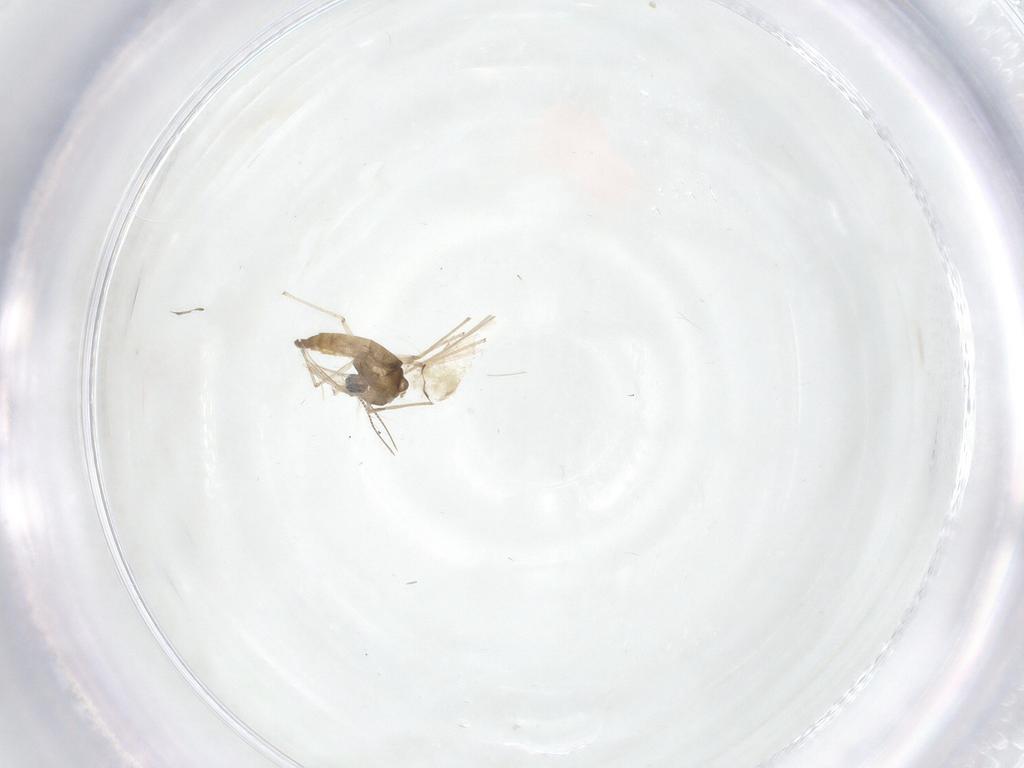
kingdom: Animalia
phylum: Arthropoda
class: Insecta
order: Diptera
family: Chironomidae
